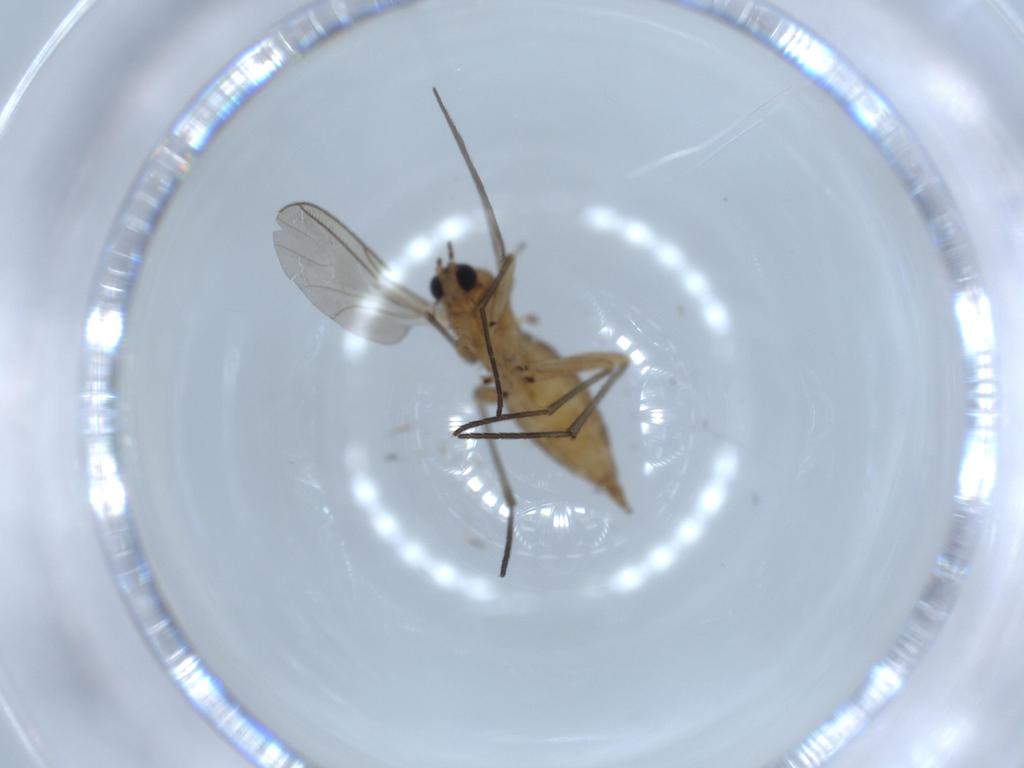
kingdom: Animalia
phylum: Arthropoda
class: Insecta
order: Diptera
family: Sciaridae
